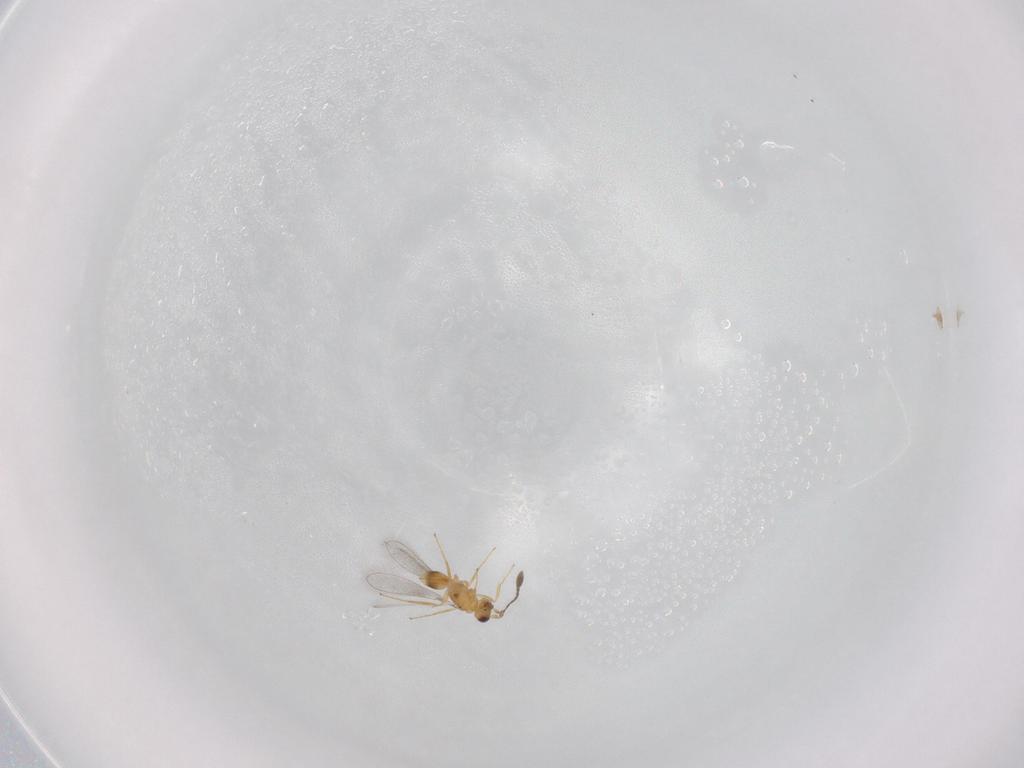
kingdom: Animalia
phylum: Arthropoda
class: Insecta
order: Hymenoptera
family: Mymaridae
